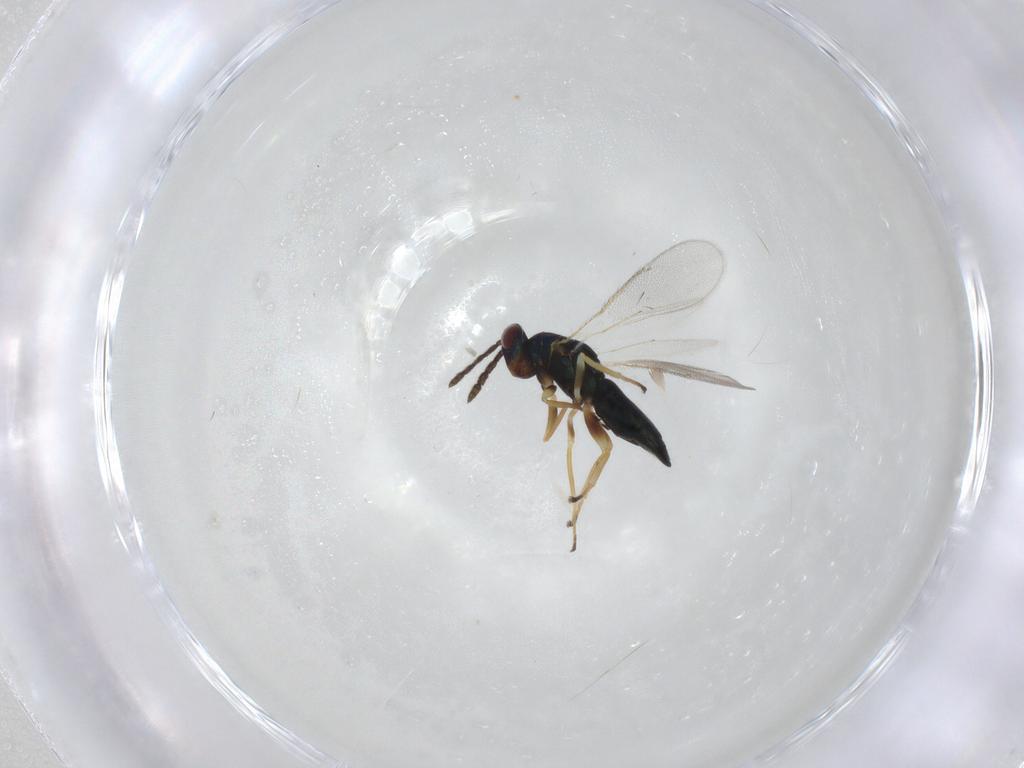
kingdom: Animalia
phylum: Arthropoda
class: Insecta
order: Hymenoptera
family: Eulophidae
